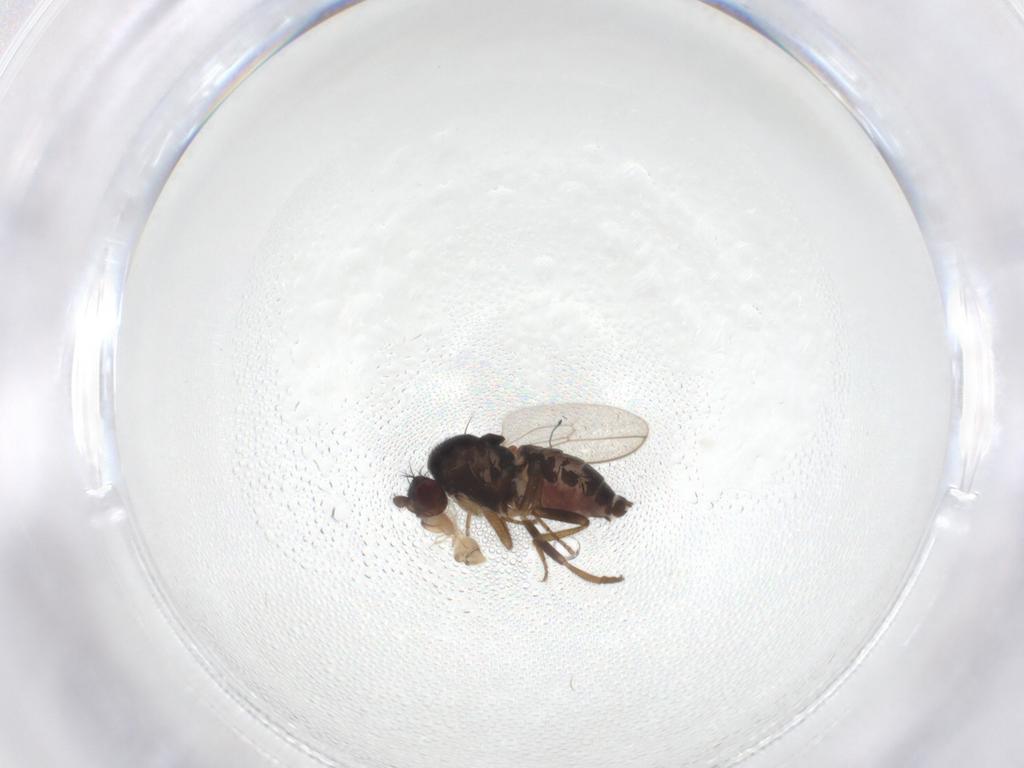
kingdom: Animalia
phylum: Arthropoda
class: Insecta
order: Diptera
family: Sphaeroceridae
